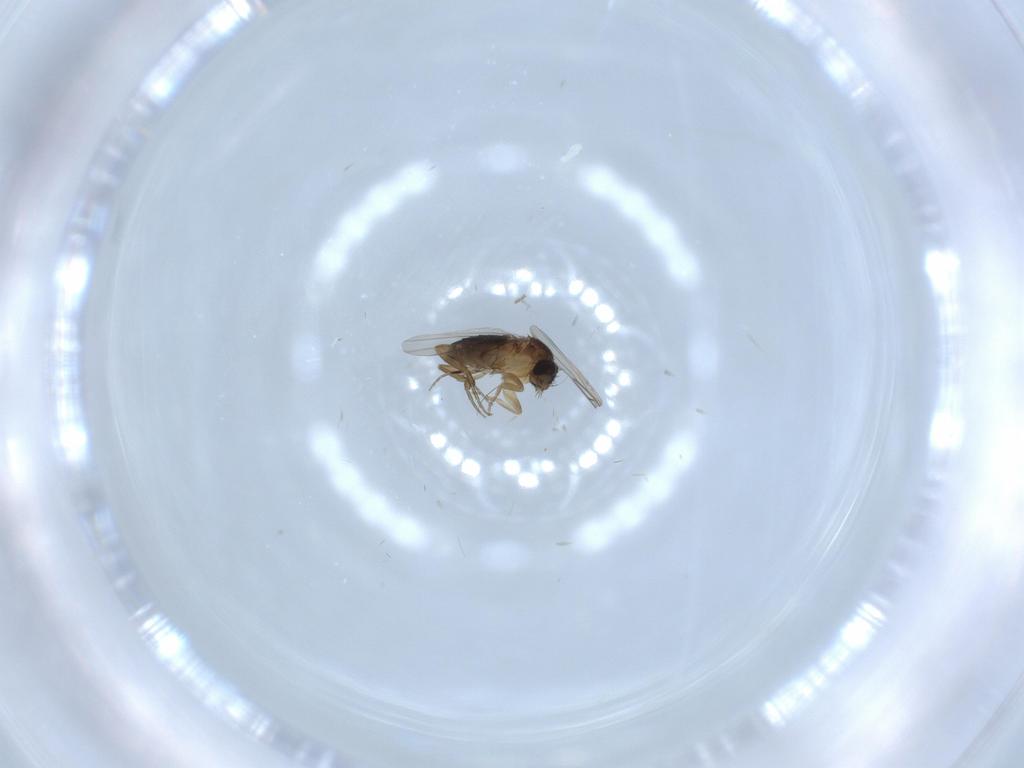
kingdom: Animalia
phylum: Arthropoda
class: Insecta
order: Diptera
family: Phoridae
